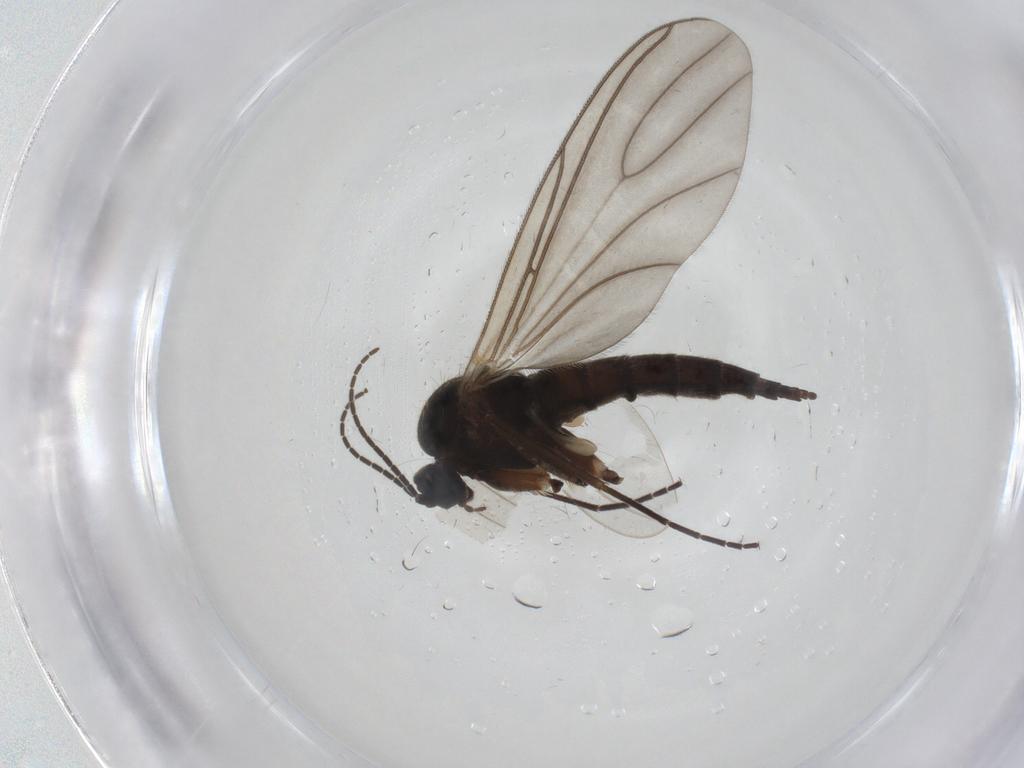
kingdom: Animalia
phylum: Arthropoda
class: Insecta
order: Diptera
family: Sciaridae
